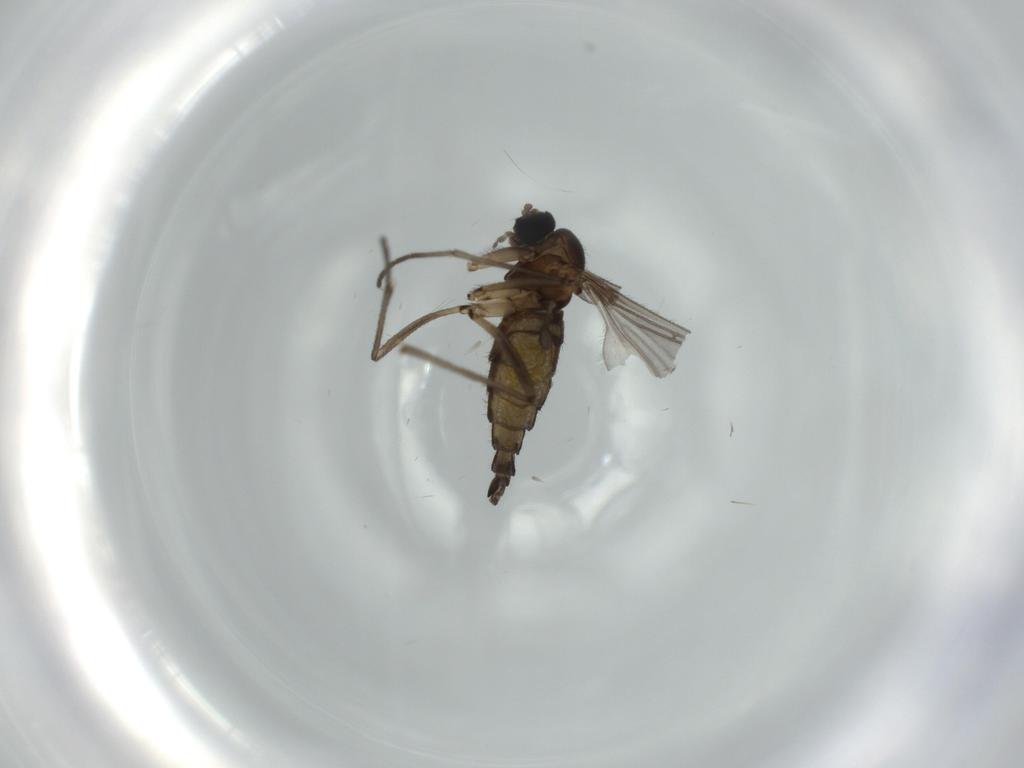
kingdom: Animalia
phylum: Arthropoda
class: Insecta
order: Diptera
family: Sciaridae
